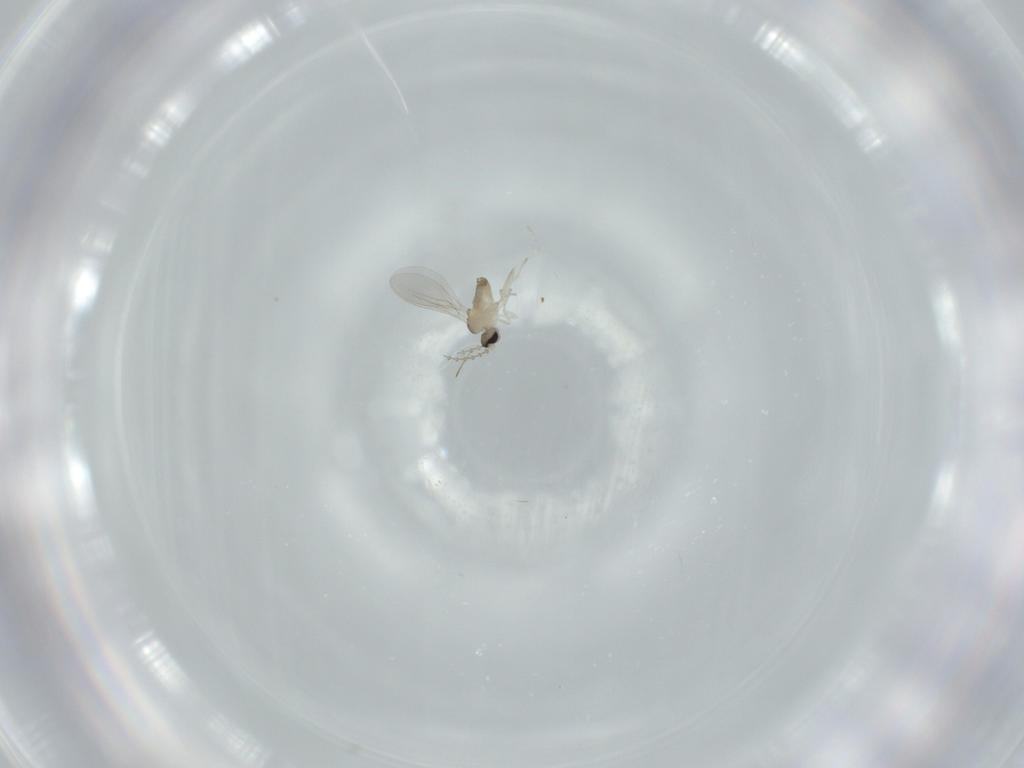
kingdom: Animalia
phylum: Arthropoda
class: Insecta
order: Diptera
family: Cecidomyiidae
